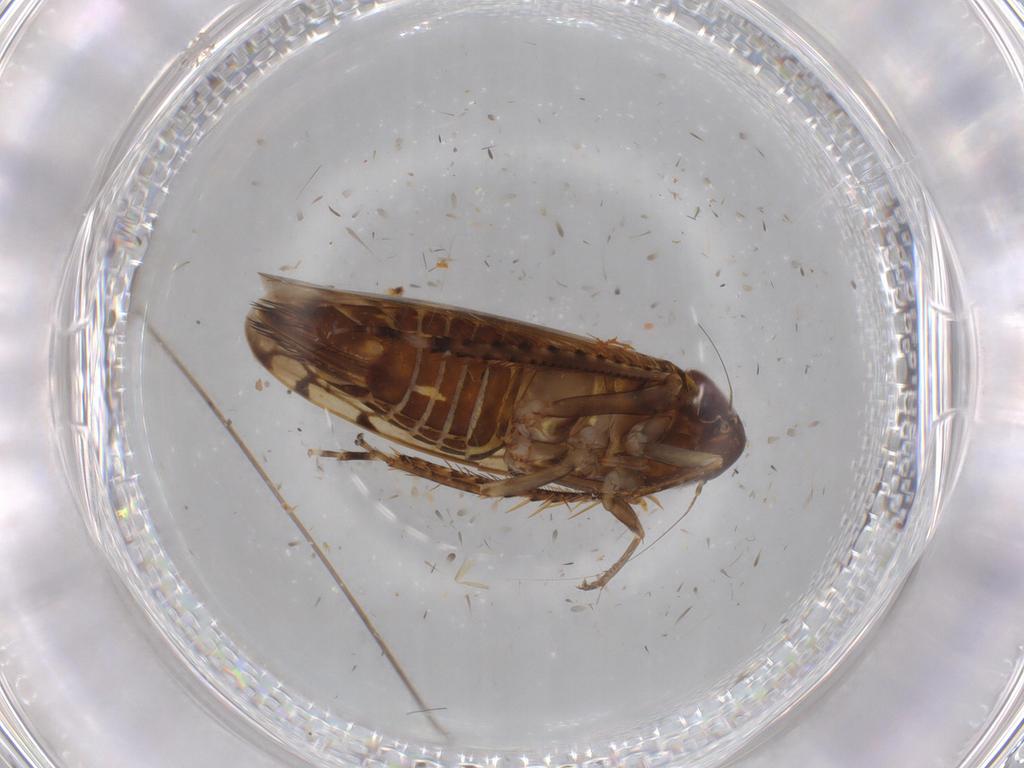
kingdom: Animalia
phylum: Arthropoda
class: Insecta
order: Hemiptera
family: Cicadellidae
